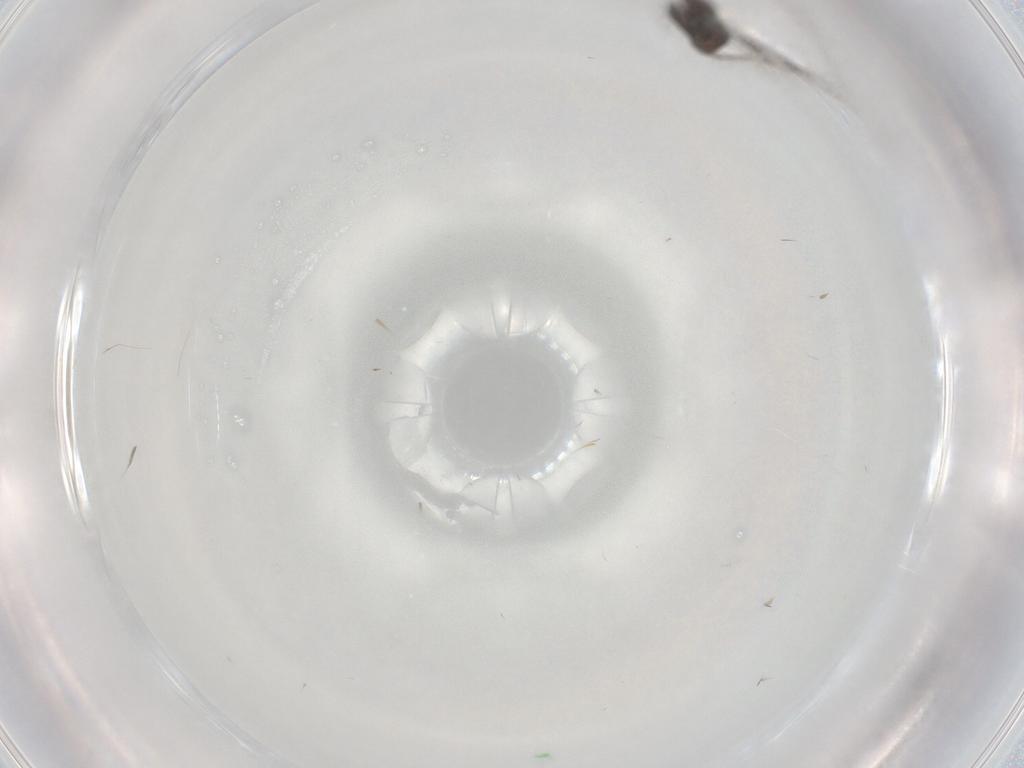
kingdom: Animalia
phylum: Arthropoda
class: Insecta
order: Diptera
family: Cecidomyiidae
